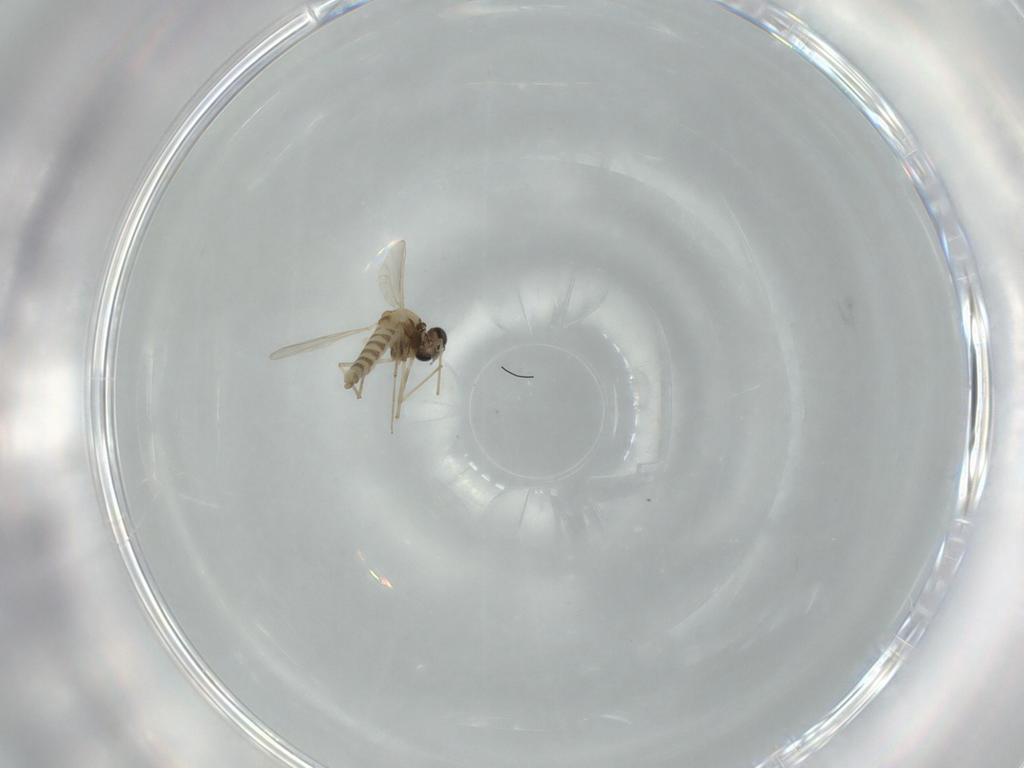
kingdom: Animalia
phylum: Arthropoda
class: Insecta
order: Diptera
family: Chironomidae
